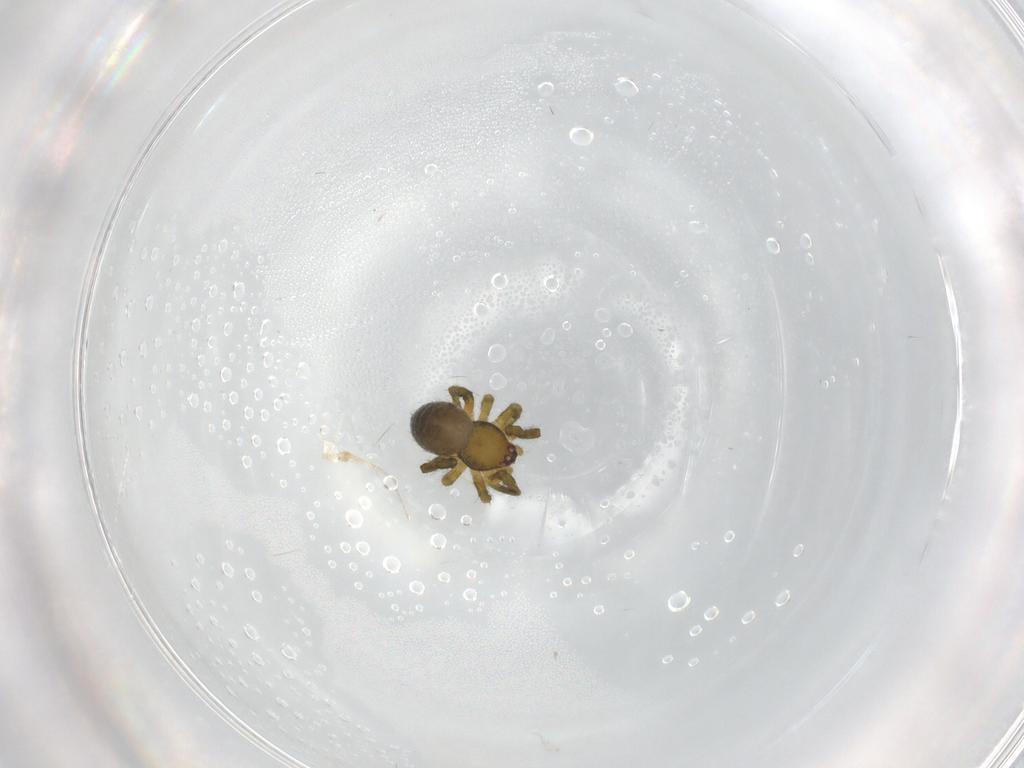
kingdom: Animalia
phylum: Arthropoda
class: Arachnida
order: Araneae
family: Theridiidae
